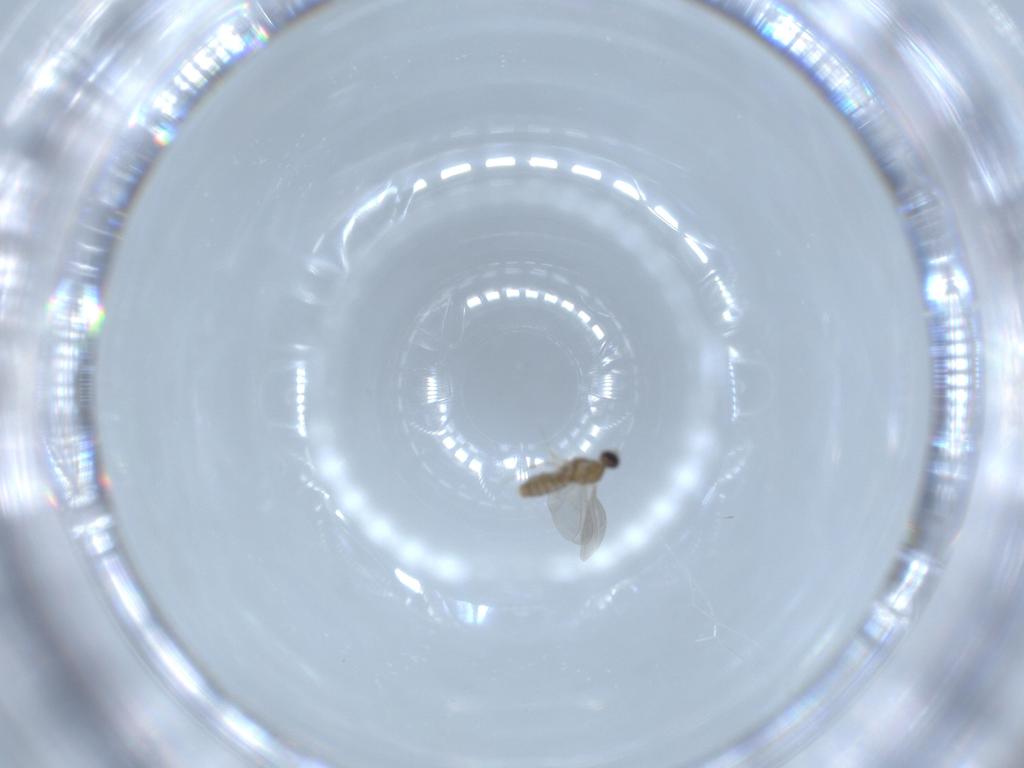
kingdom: Animalia
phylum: Arthropoda
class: Insecta
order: Diptera
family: Cecidomyiidae
